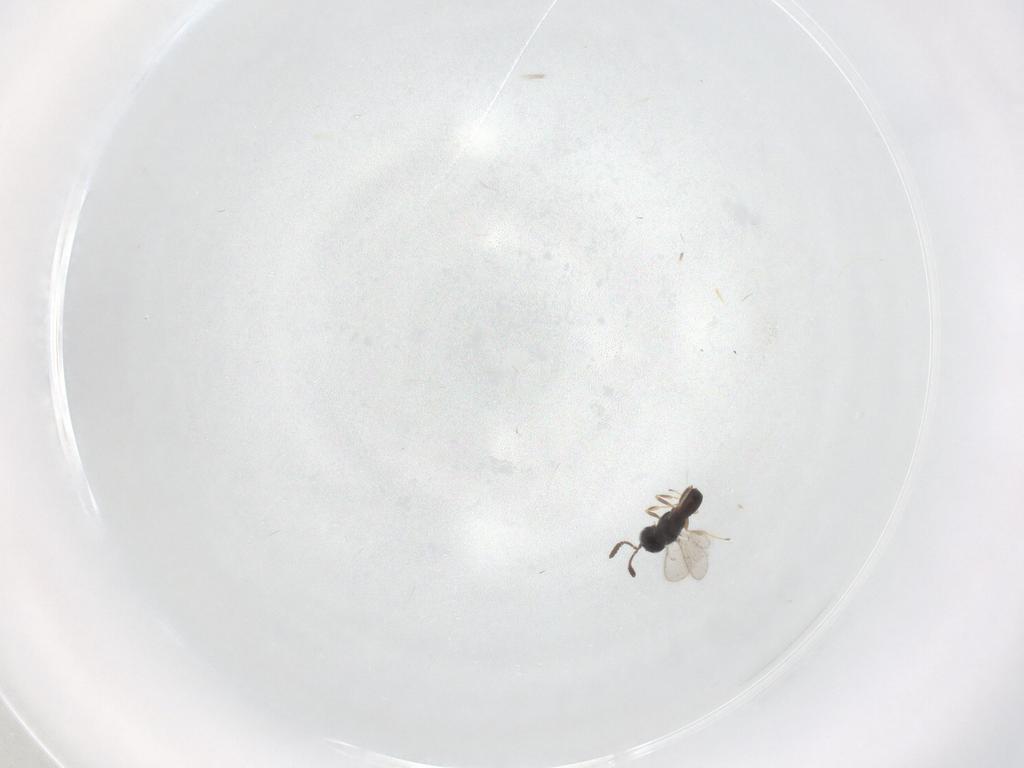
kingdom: Animalia
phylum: Arthropoda
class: Insecta
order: Hymenoptera
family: Scelionidae
